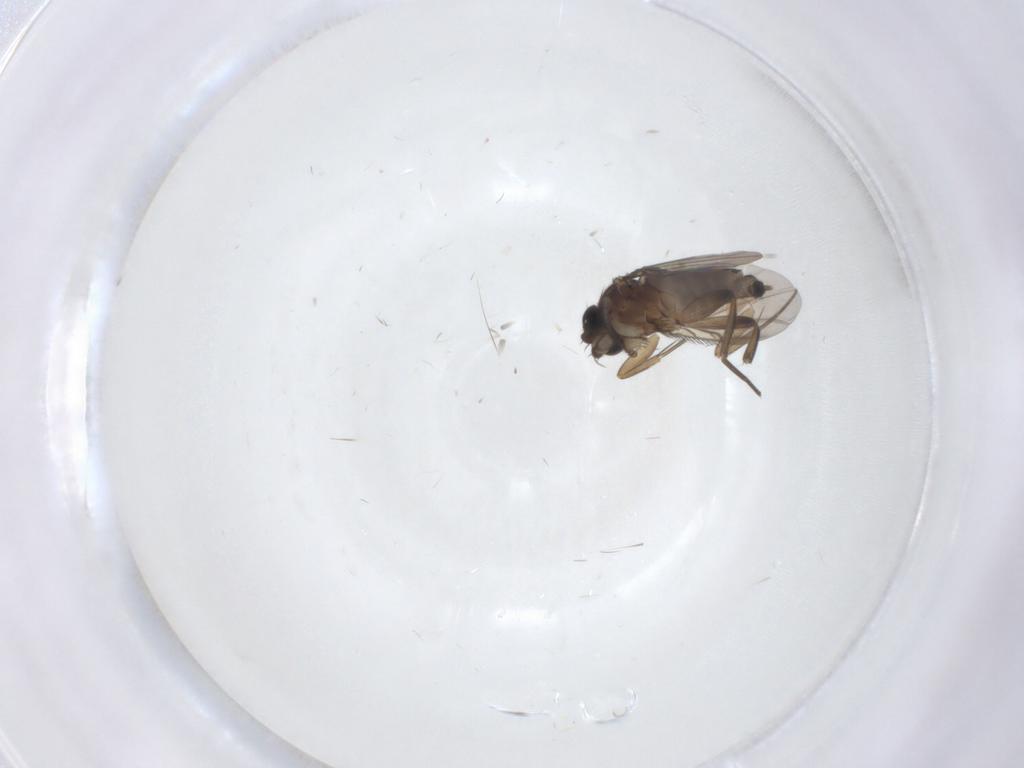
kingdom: Animalia
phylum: Arthropoda
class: Insecta
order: Diptera
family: Phoridae
